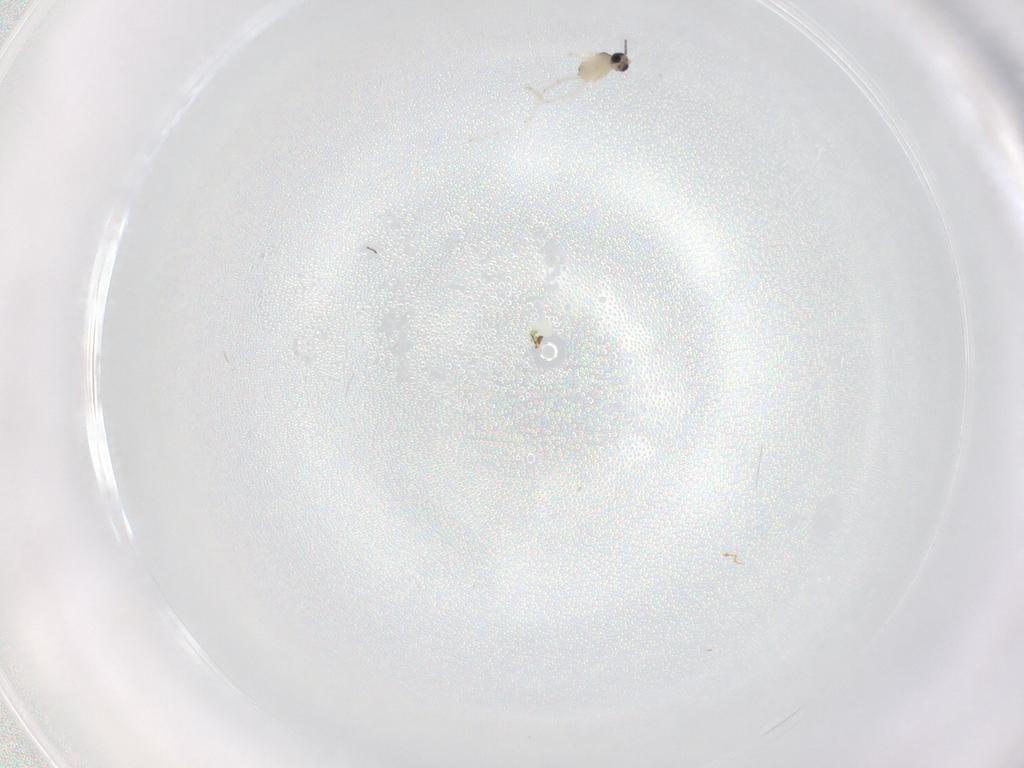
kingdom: Animalia
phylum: Arthropoda
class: Insecta
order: Diptera
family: Cecidomyiidae
